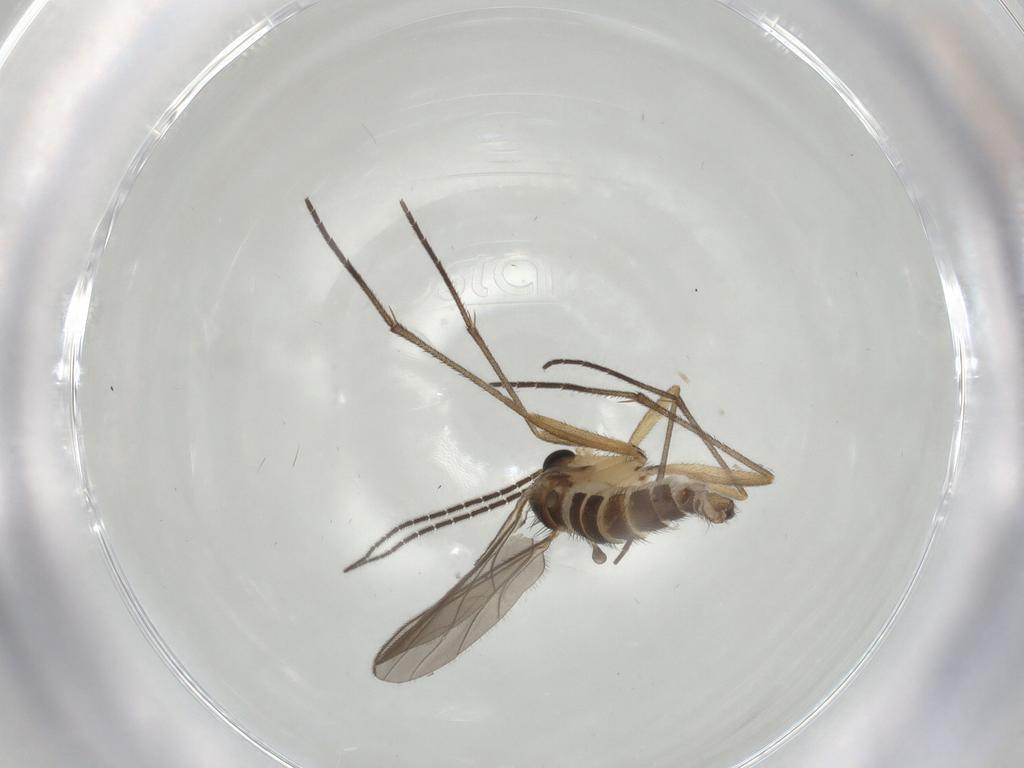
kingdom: Animalia
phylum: Arthropoda
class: Insecta
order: Diptera
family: Sciaridae
